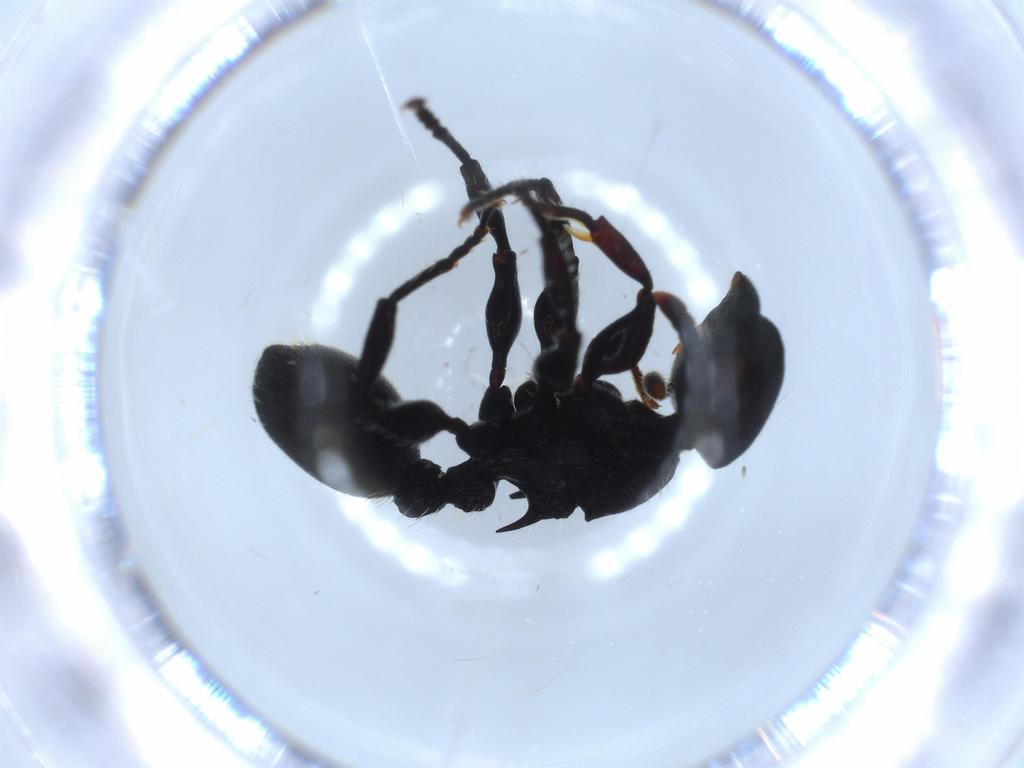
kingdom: Animalia
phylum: Arthropoda
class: Insecta
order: Hymenoptera
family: Formicidae
